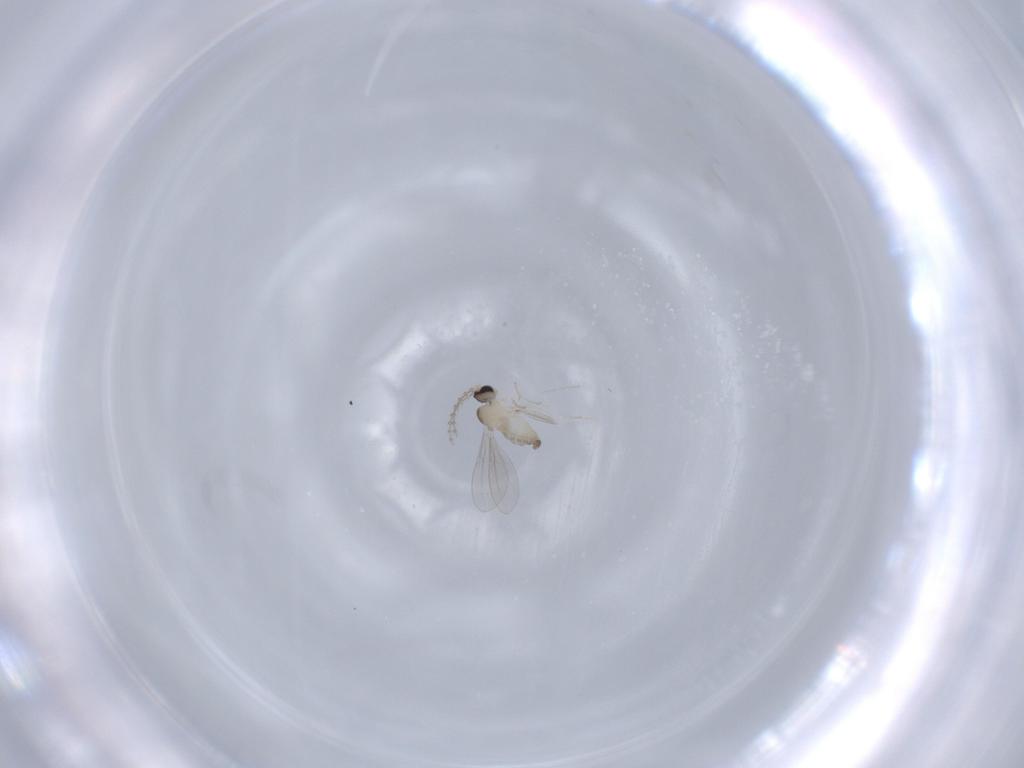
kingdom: Animalia
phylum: Arthropoda
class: Insecta
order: Diptera
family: Cecidomyiidae
